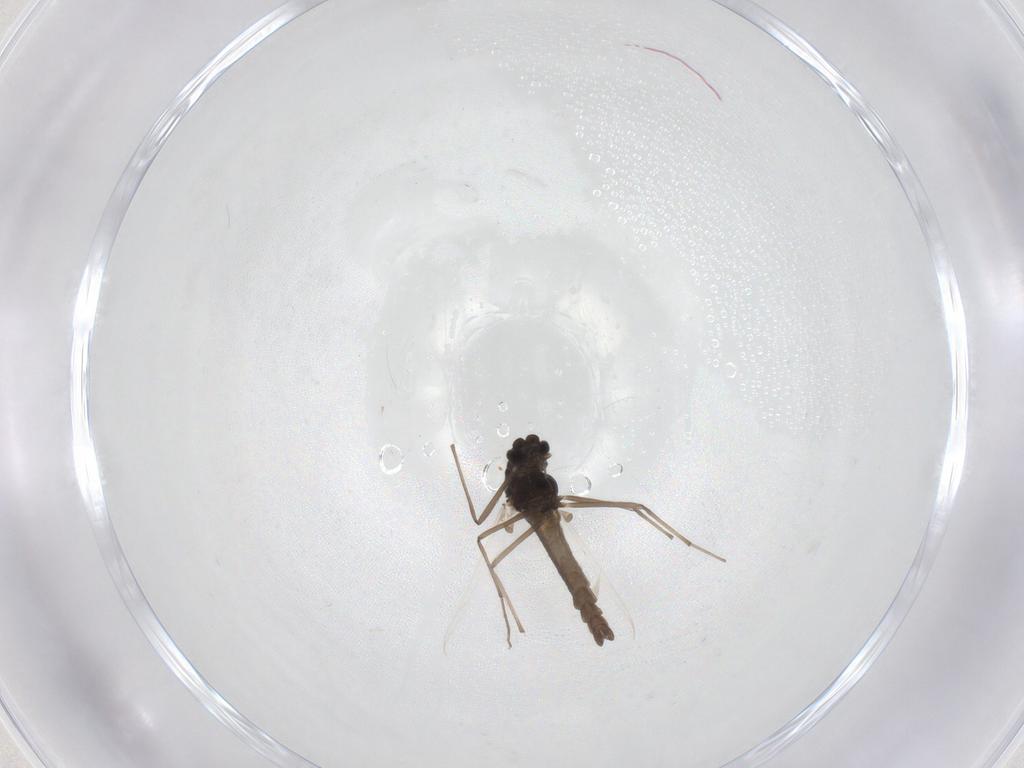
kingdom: Animalia
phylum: Arthropoda
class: Insecta
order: Diptera
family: Chironomidae
